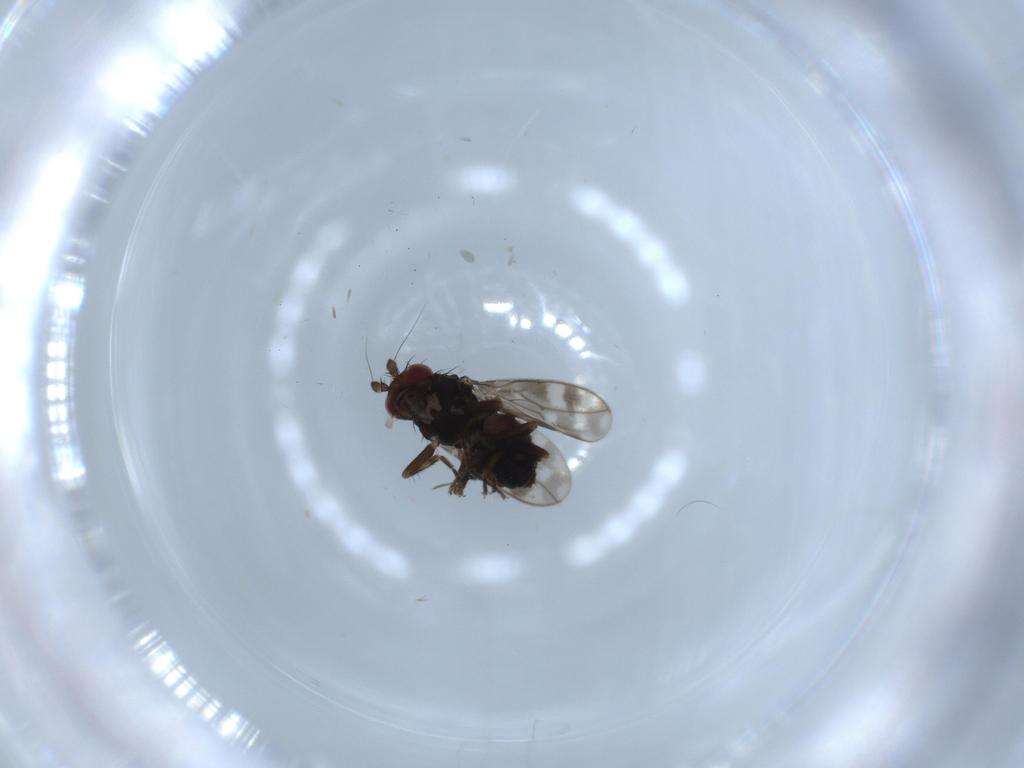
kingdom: Animalia
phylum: Arthropoda
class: Insecta
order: Diptera
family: Sphaeroceridae
